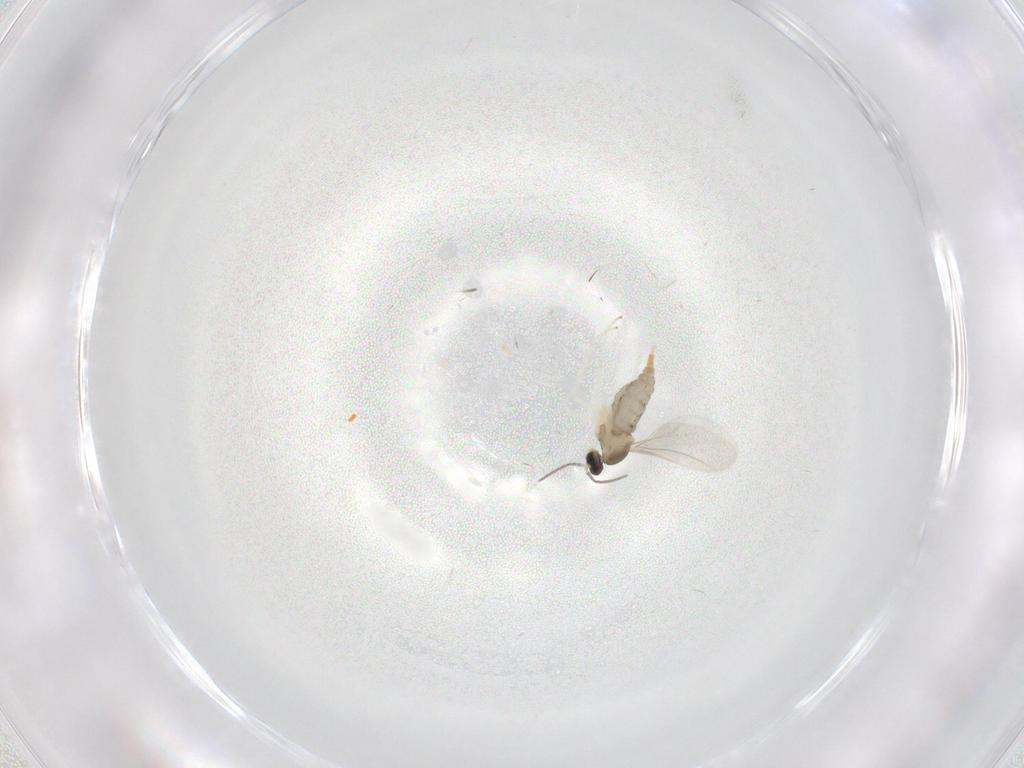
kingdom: Animalia
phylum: Arthropoda
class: Insecta
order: Diptera
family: Cecidomyiidae
